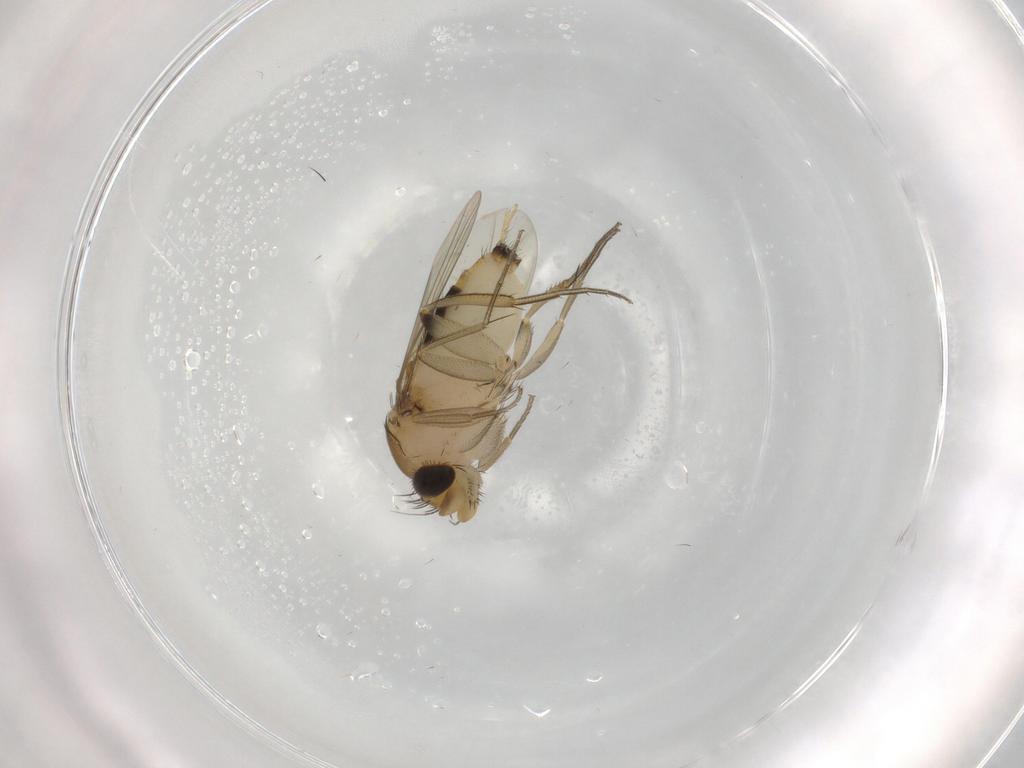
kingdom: Animalia
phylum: Arthropoda
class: Insecta
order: Diptera
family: Phoridae
